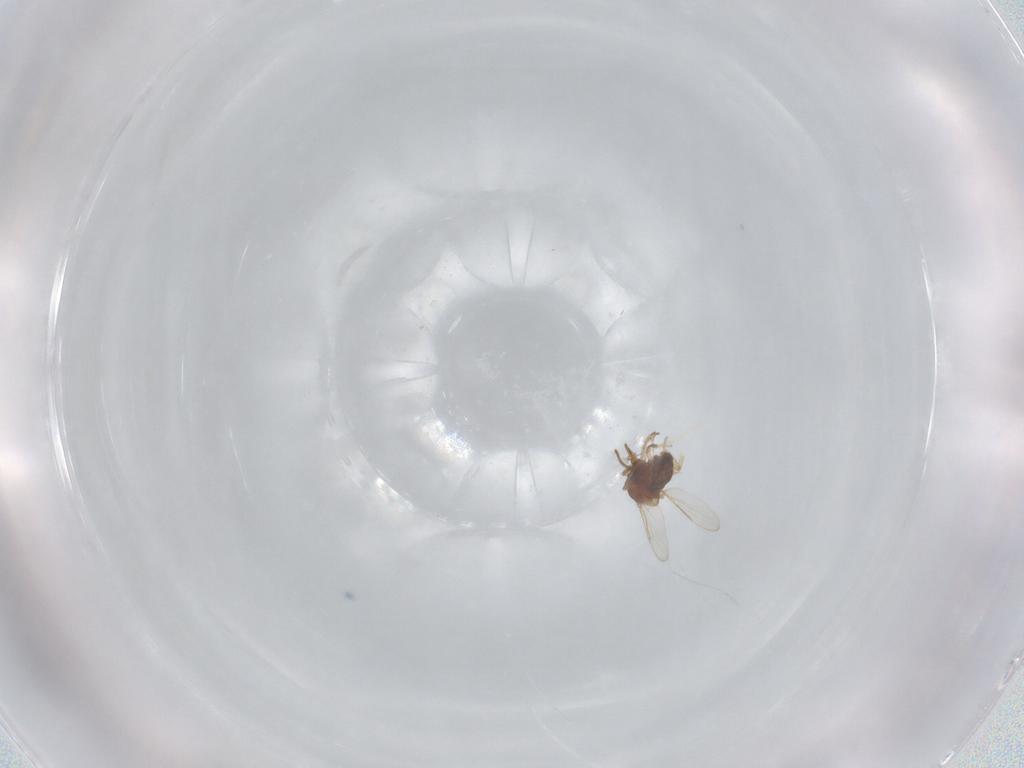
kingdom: Animalia
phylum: Arthropoda
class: Insecta
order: Diptera
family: Ceratopogonidae
